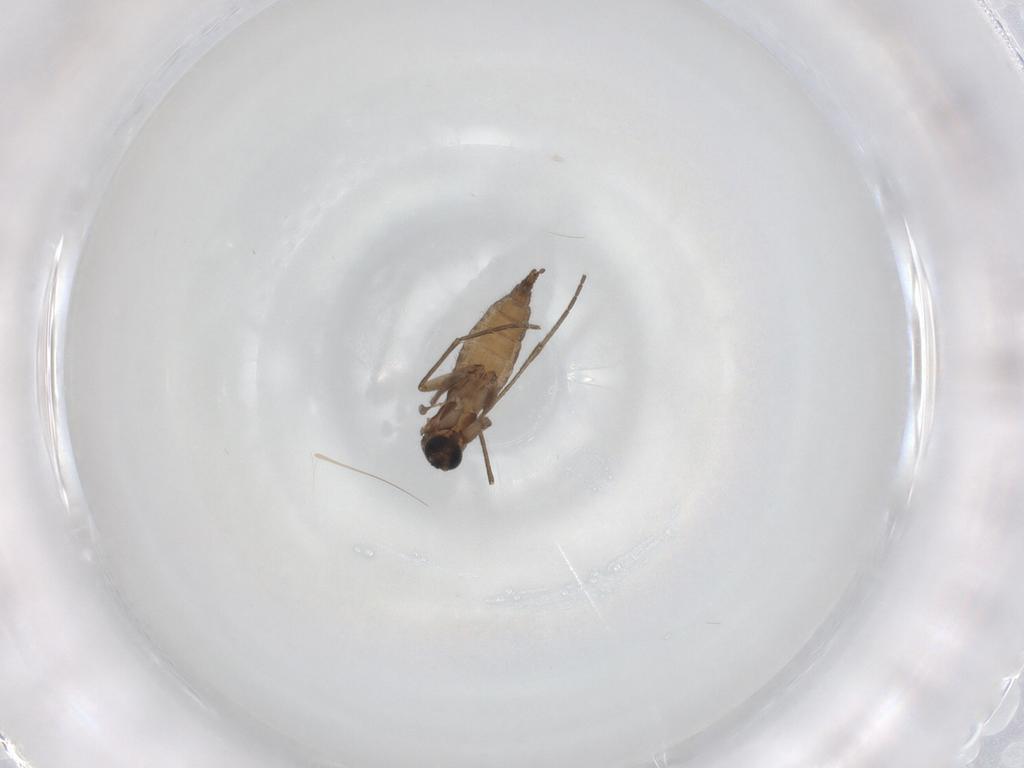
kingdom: Animalia
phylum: Arthropoda
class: Insecta
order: Diptera
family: Sciaridae
